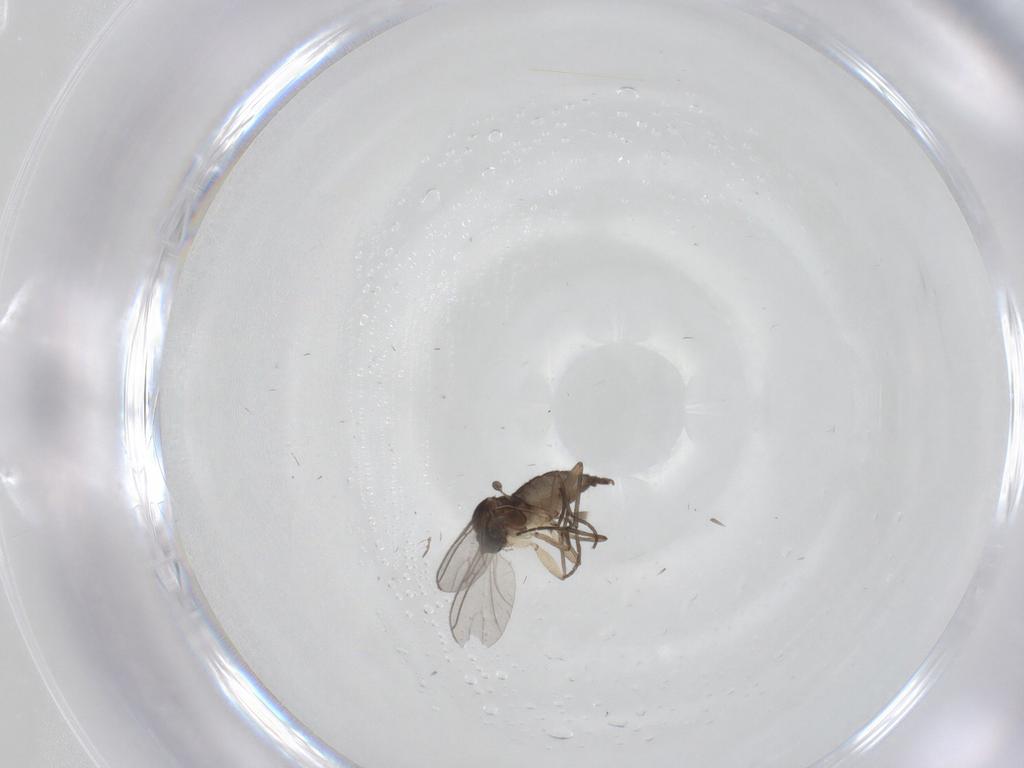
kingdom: Animalia
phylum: Arthropoda
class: Insecta
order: Diptera
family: Sciaridae
